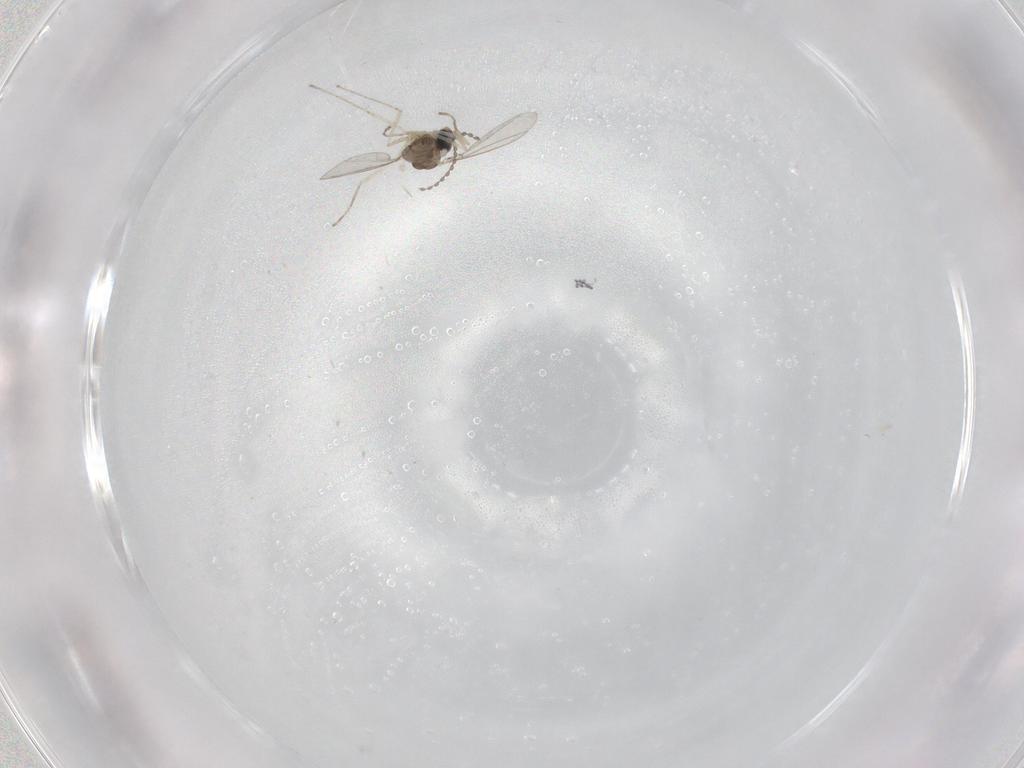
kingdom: Animalia
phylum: Arthropoda
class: Insecta
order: Diptera
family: Cecidomyiidae
